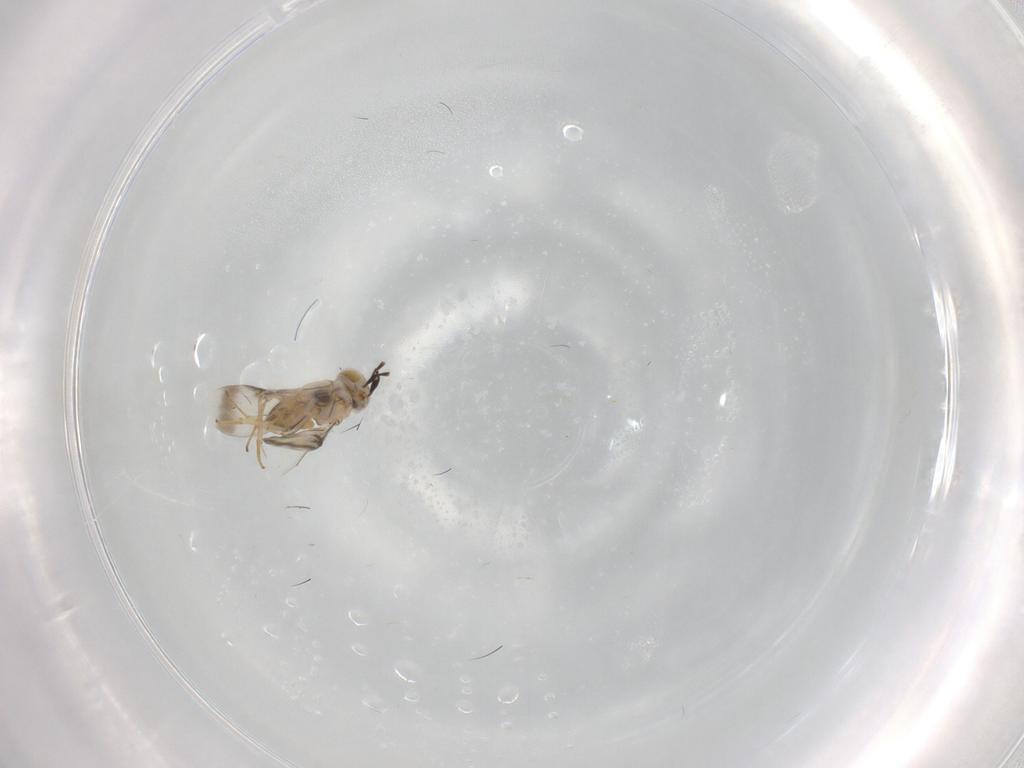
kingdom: Animalia
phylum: Arthropoda
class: Insecta
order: Hymenoptera
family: Encyrtidae
